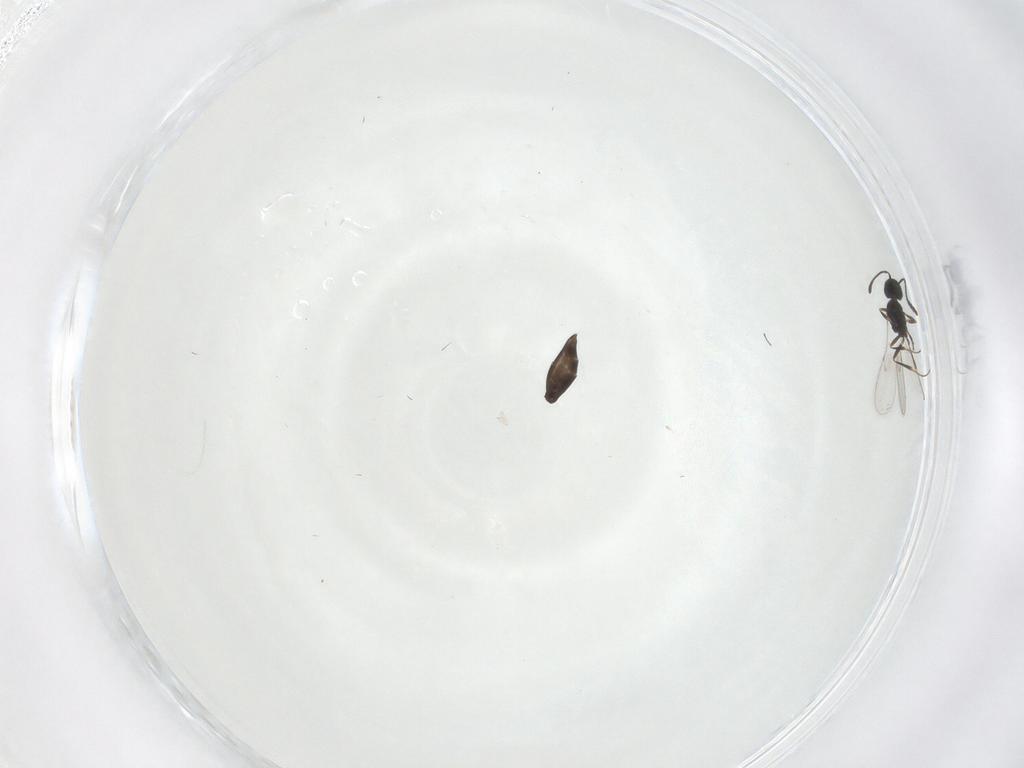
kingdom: Animalia
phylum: Arthropoda
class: Insecta
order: Hymenoptera
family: Scelionidae
